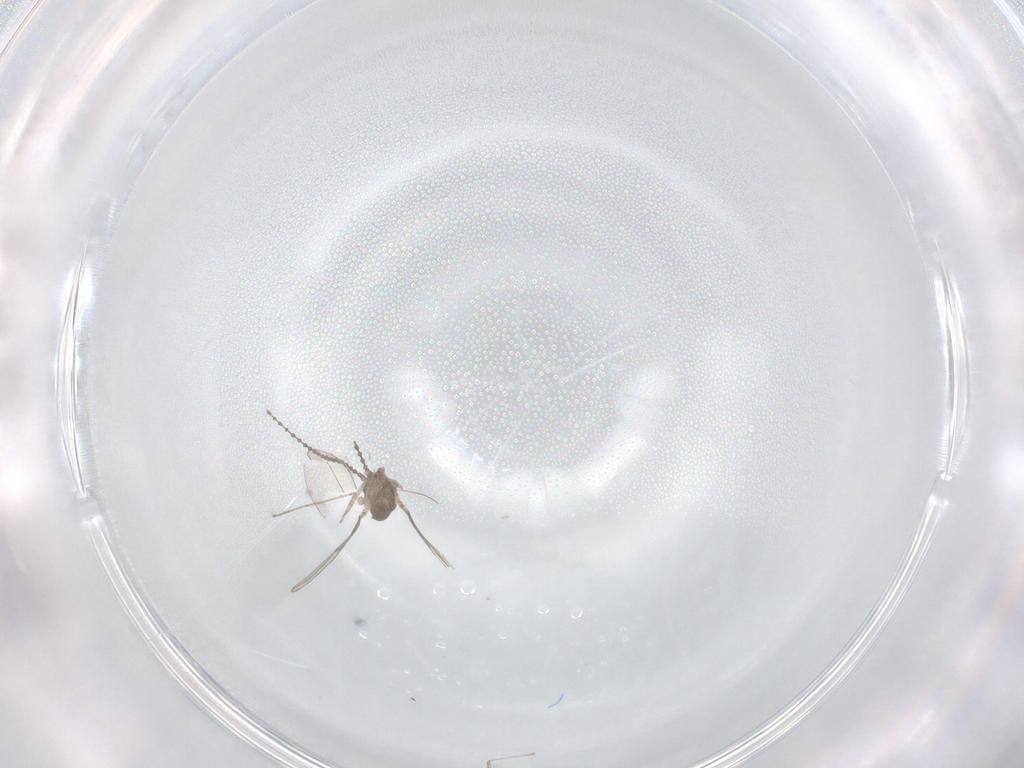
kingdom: Animalia
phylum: Arthropoda
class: Insecta
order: Diptera
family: Cecidomyiidae
